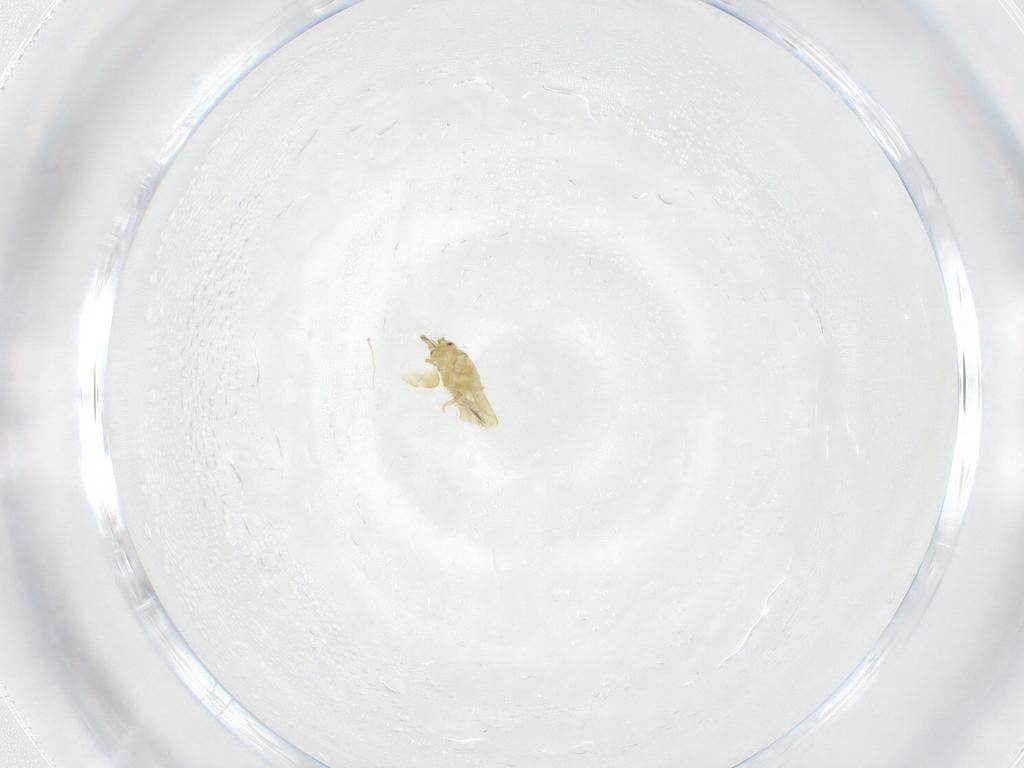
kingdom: Animalia
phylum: Arthropoda
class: Collembola
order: Entomobryomorpha
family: Entomobryidae
